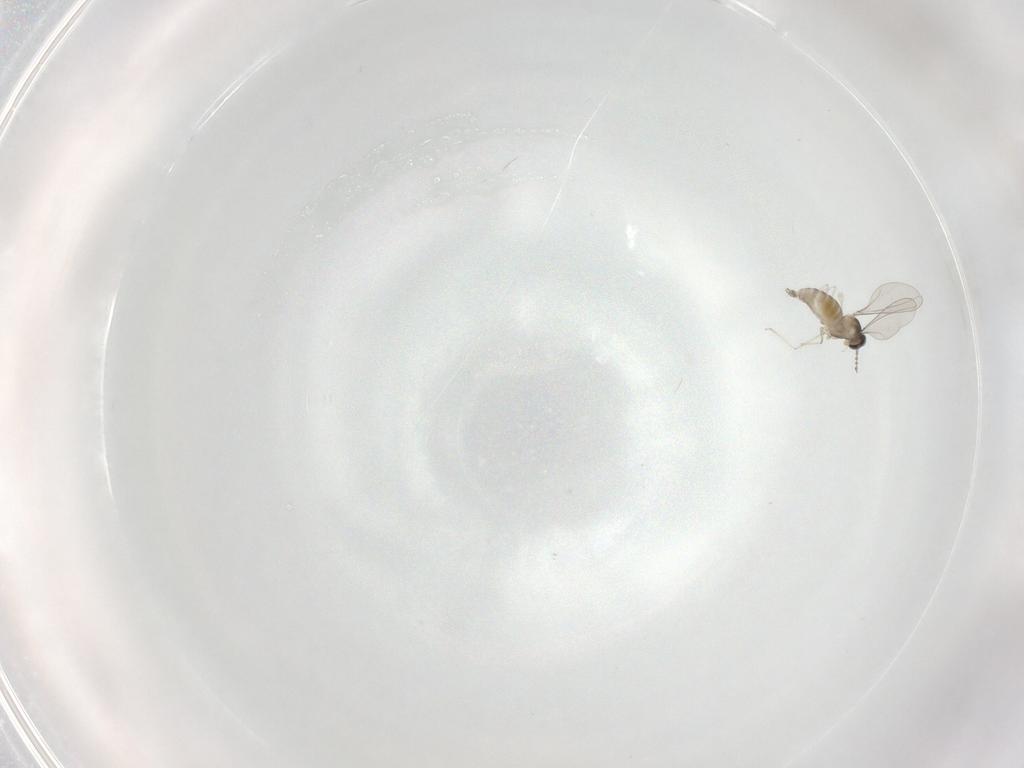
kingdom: Animalia
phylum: Arthropoda
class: Insecta
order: Diptera
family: Cecidomyiidae
